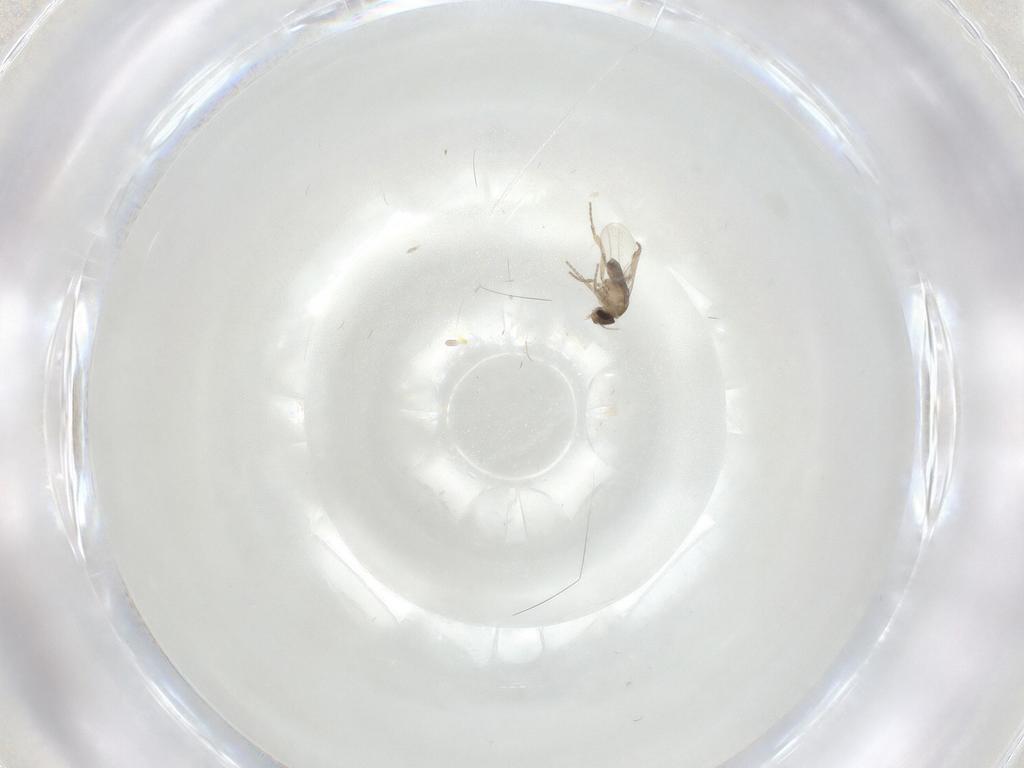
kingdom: Animalia
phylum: Arthropoda
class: Insecta
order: Diptera
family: Phoridae
